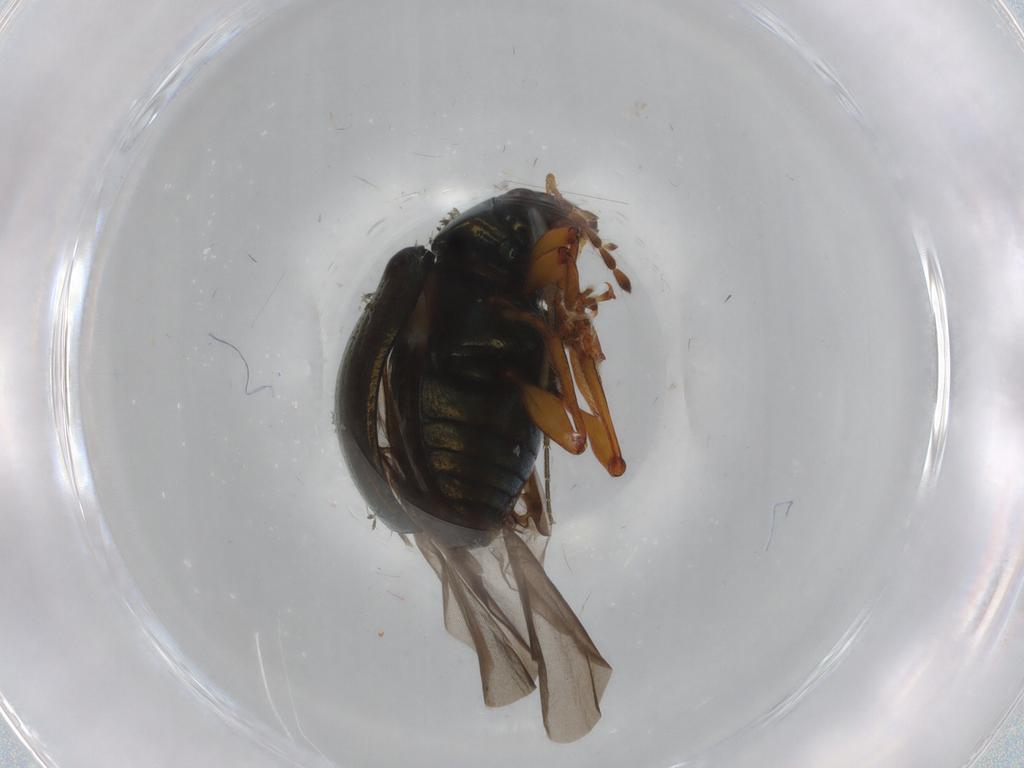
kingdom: Animalia
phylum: Arthropoda
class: Insecta
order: Coleoptera
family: Chrysomelidae
